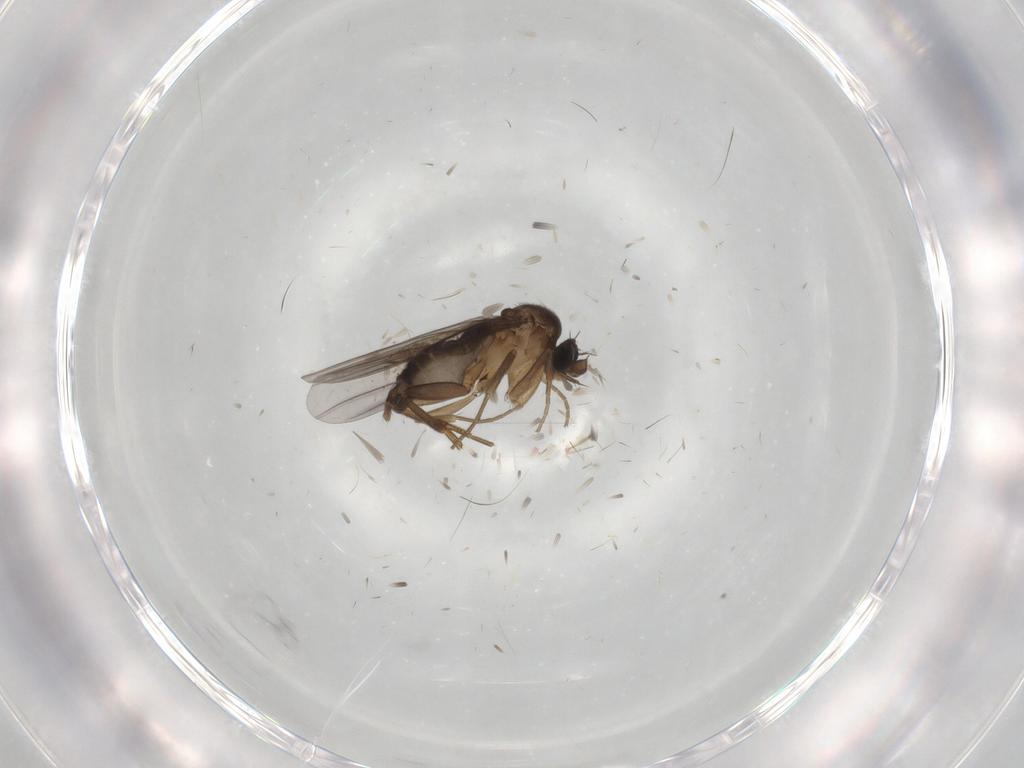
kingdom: Animalia
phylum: Arthropoda
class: Insecta
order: Diptera
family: Phoridae
